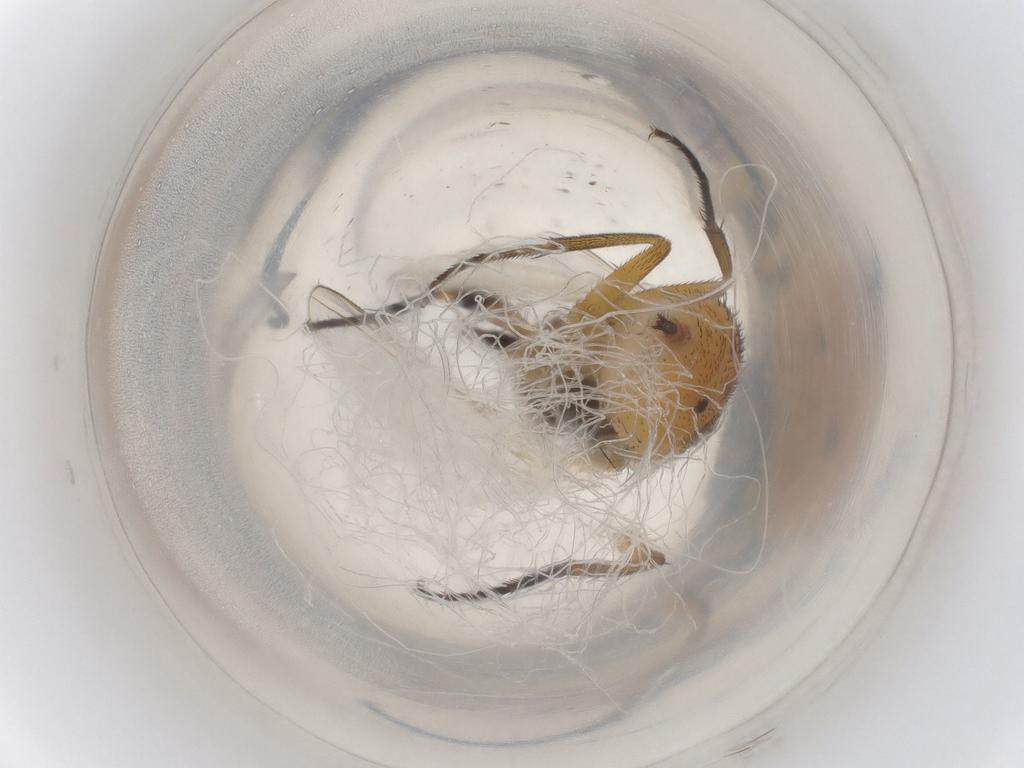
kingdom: Animalia
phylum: Arthropoda
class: Insecta
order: Diptera
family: Muscidae
